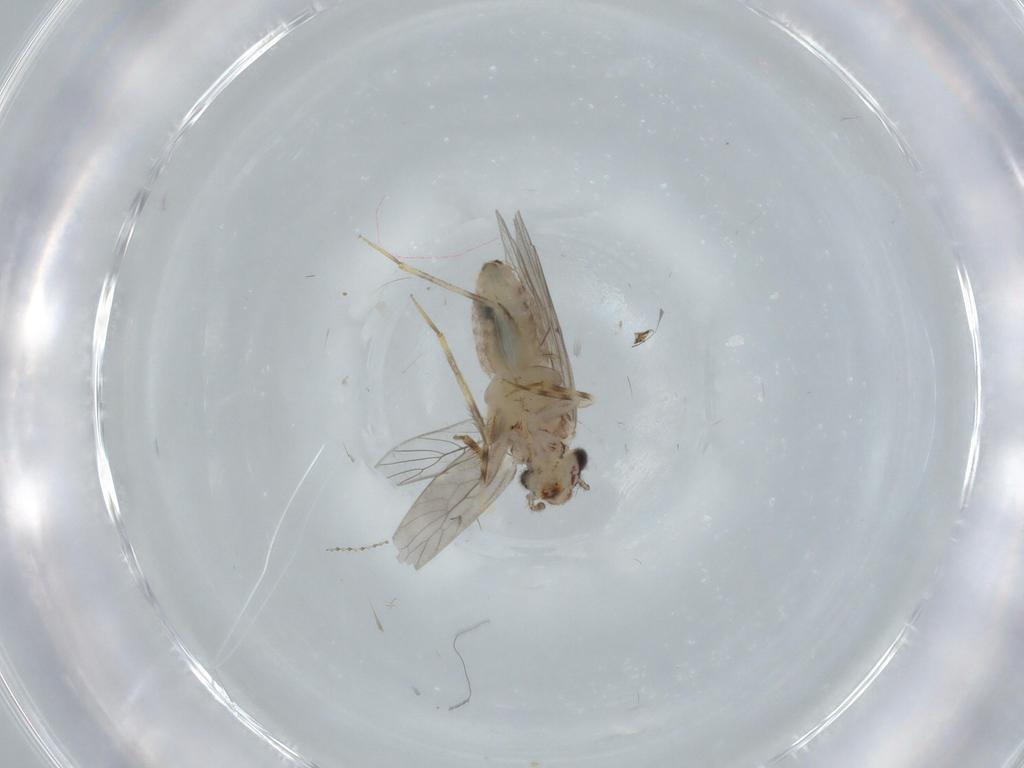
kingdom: Animalia
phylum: Arthropoda
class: Insecta
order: Psocodea
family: Lepidopsocidae
